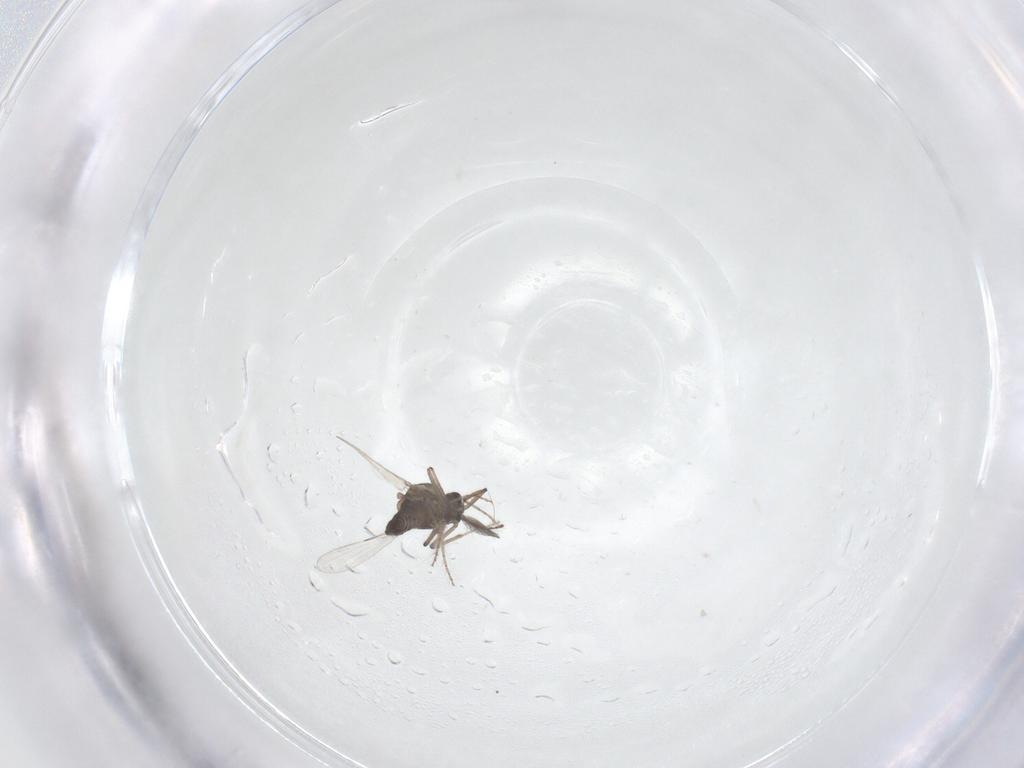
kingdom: Animalia
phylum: Arthropoda
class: Insecta
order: Diptera
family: Ceratopogonidae
